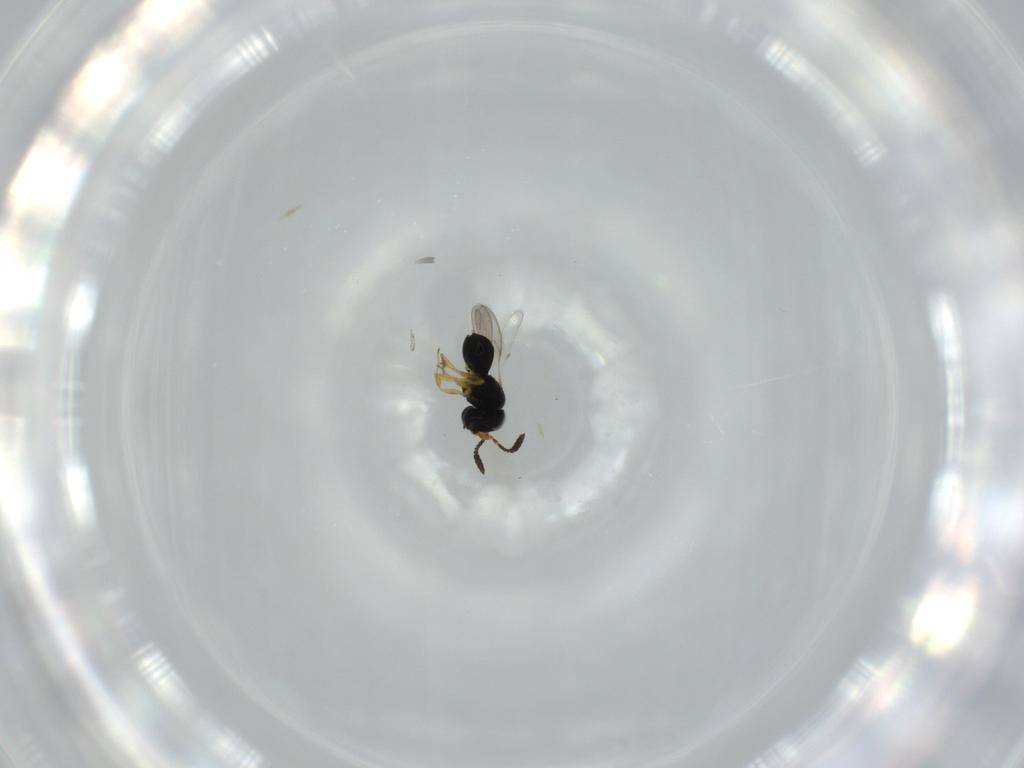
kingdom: Animalia
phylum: Arthropoda
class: Insecta
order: Hymenoptera
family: Scelionidae
